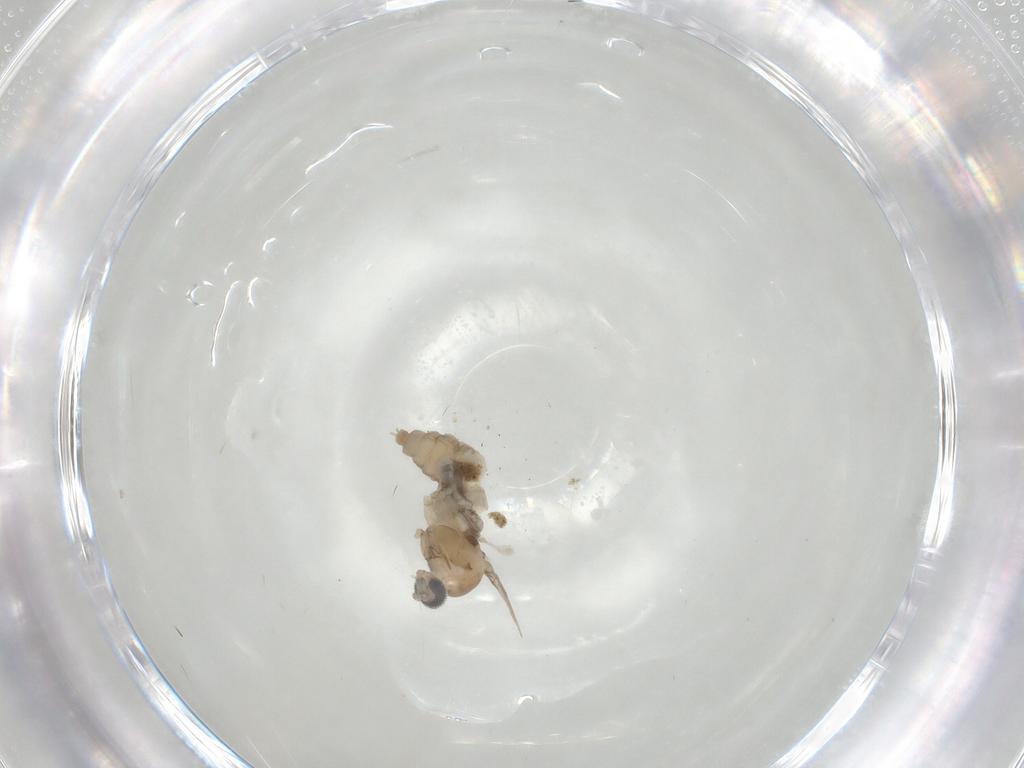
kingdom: Animalia
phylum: Arthropoda
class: Insecta
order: Diptera
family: Cecidomyiidae
